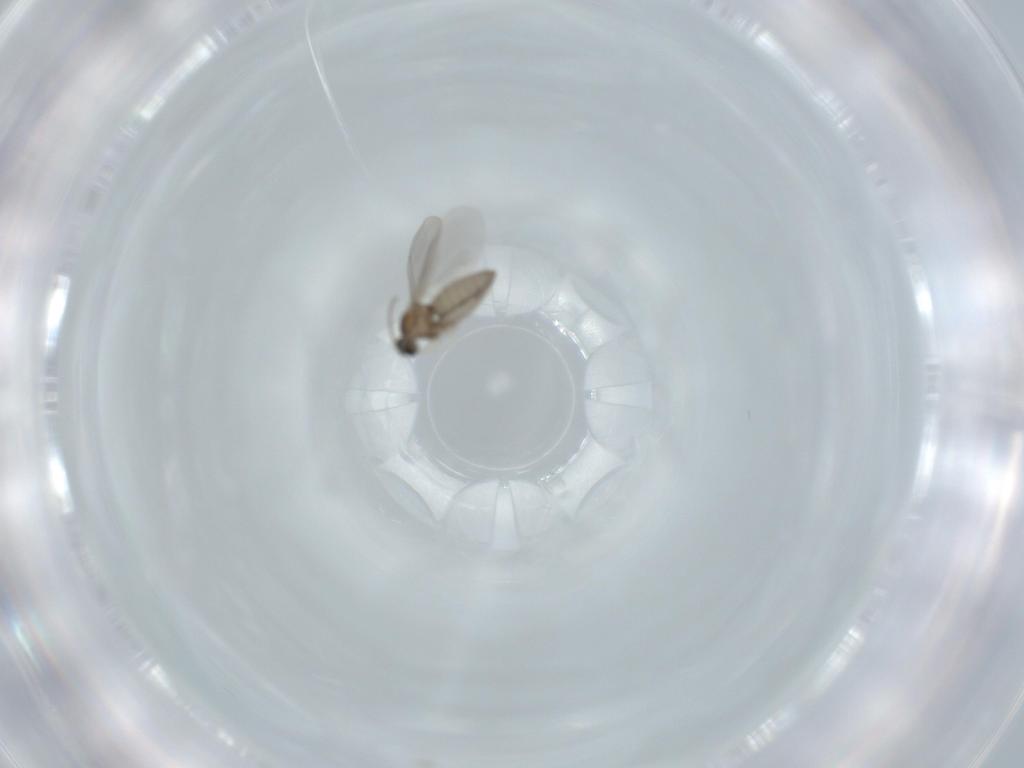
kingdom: Animalia
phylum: Arthropoda
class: Insecta
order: Diptera
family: Cecidomyiidae
